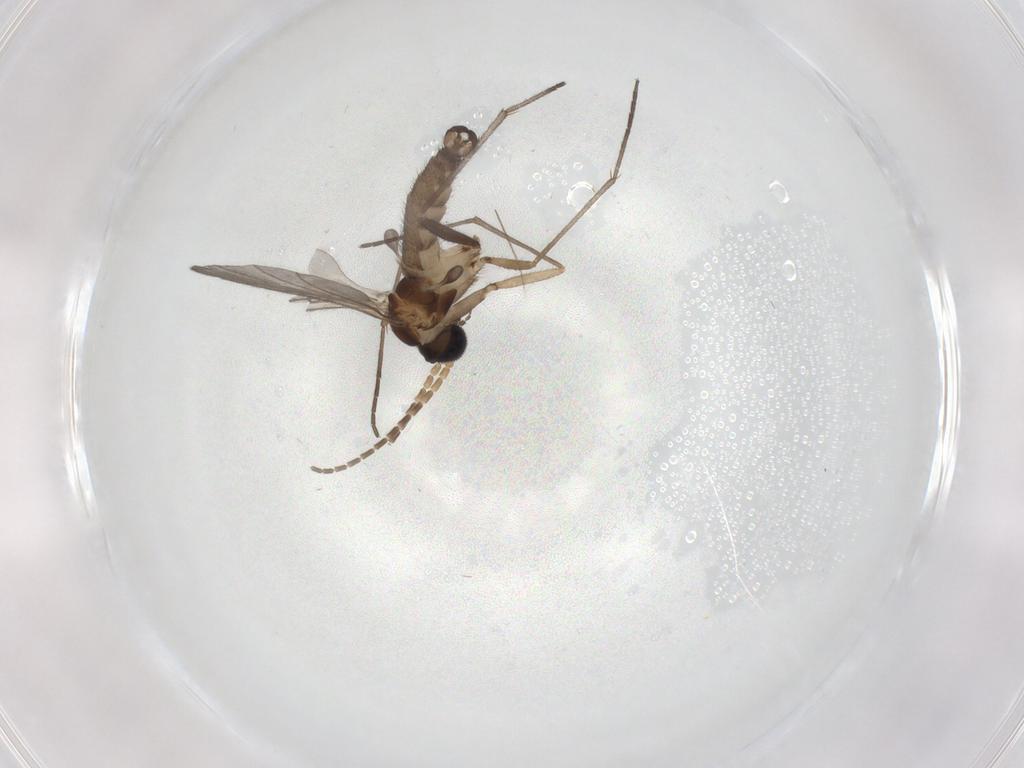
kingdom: Animalia
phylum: Arthropoda
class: Insecta
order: Diptera
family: Sciaridae
